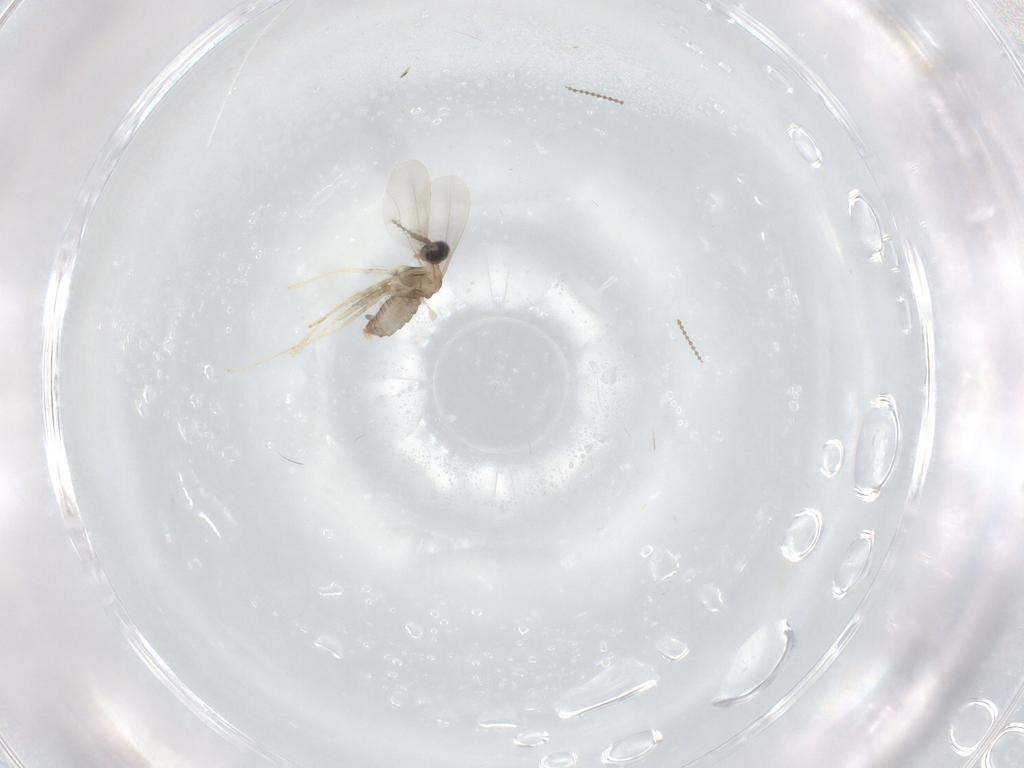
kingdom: Animalia
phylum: Arthropoda
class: Insecta
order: Diptera
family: Cecidomyiidae
